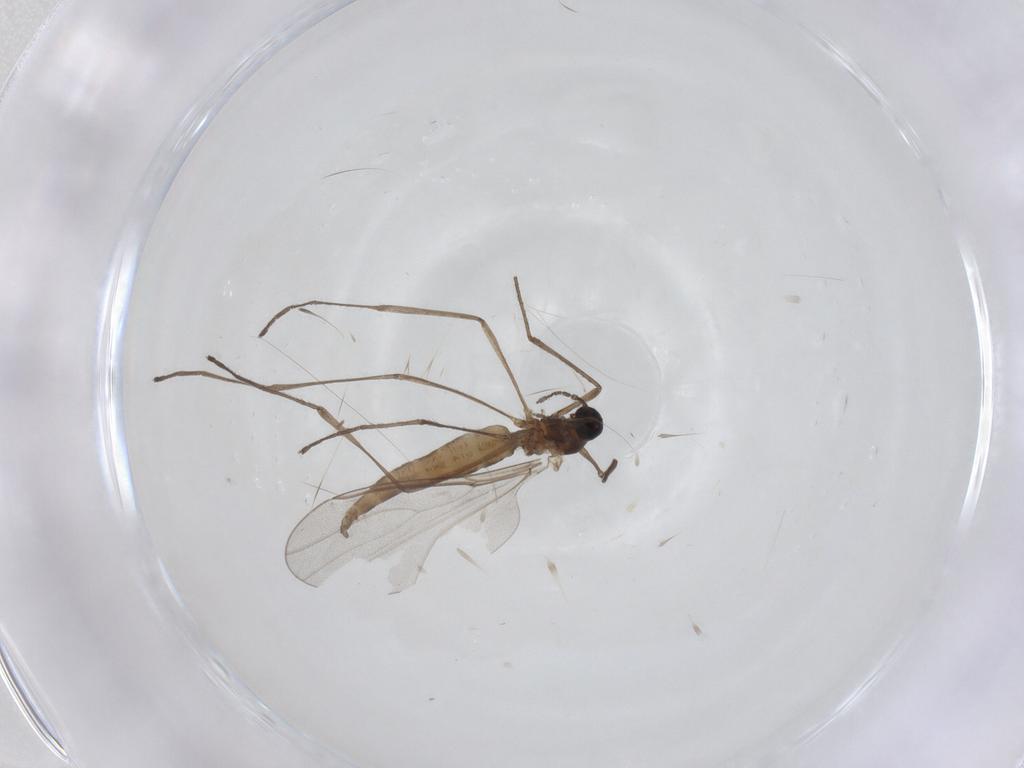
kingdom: Animalia
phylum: Arthropoda
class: Insecta
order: Diptera
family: Cecidomyiidae
